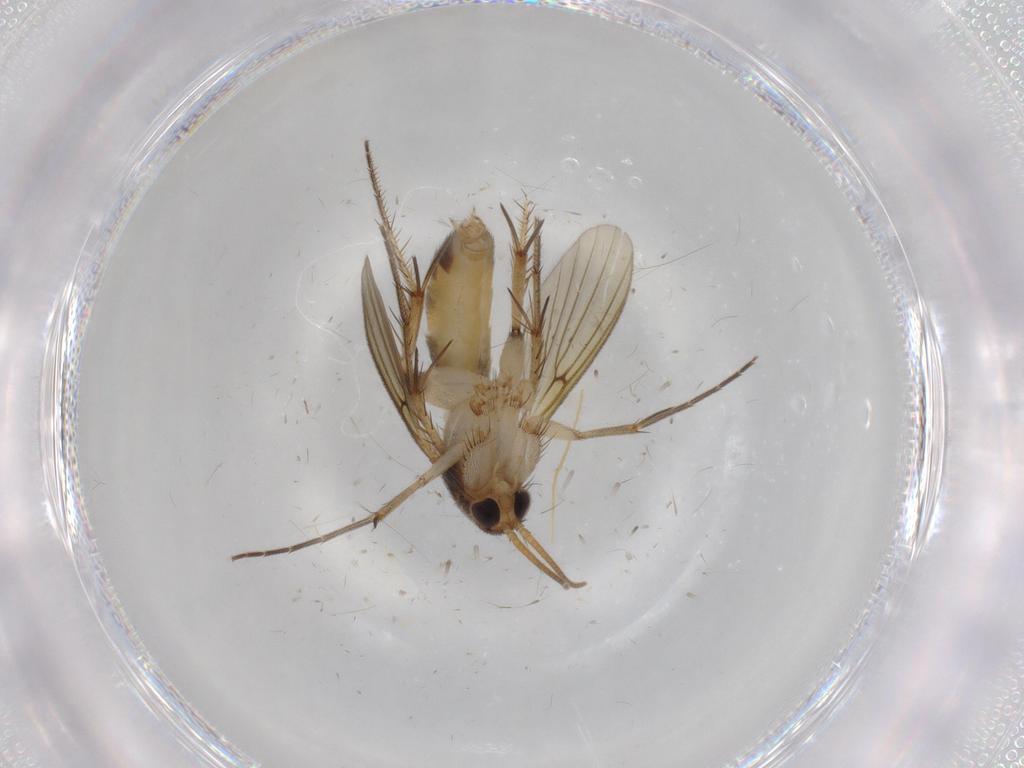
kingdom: Animalia
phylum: Arthropoda
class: Insecta
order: Diptera
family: Mycetophilidae
